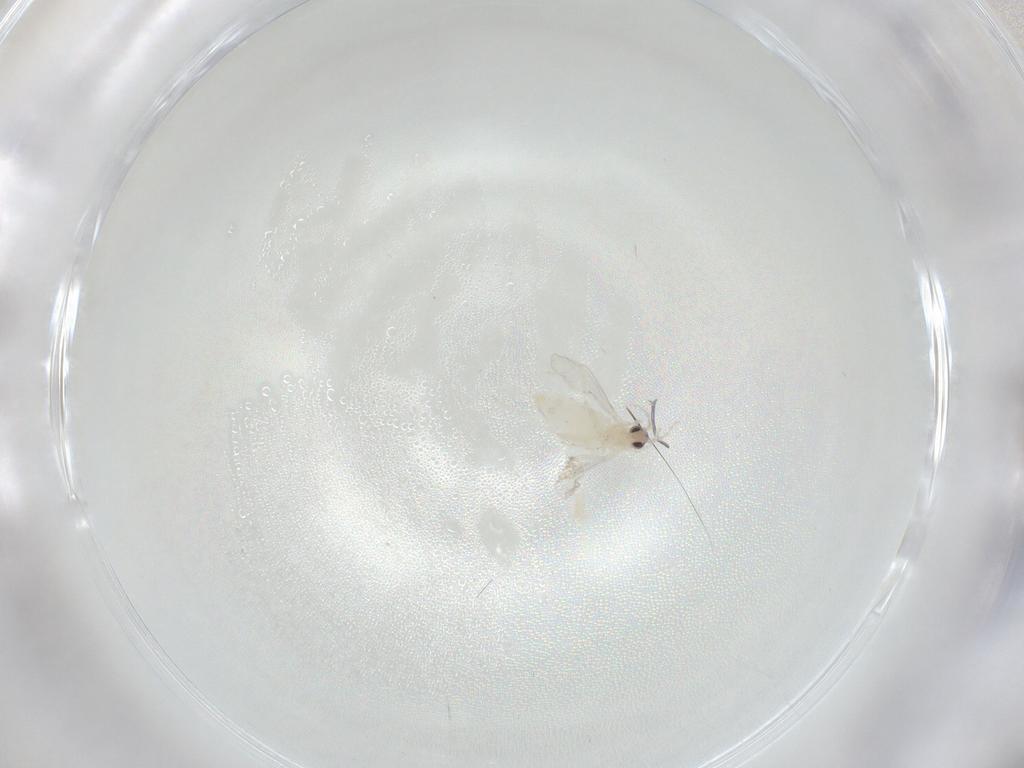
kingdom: Animalia
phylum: Arthropoda
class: Insecta
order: Diptera
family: Cecidomyiidae
